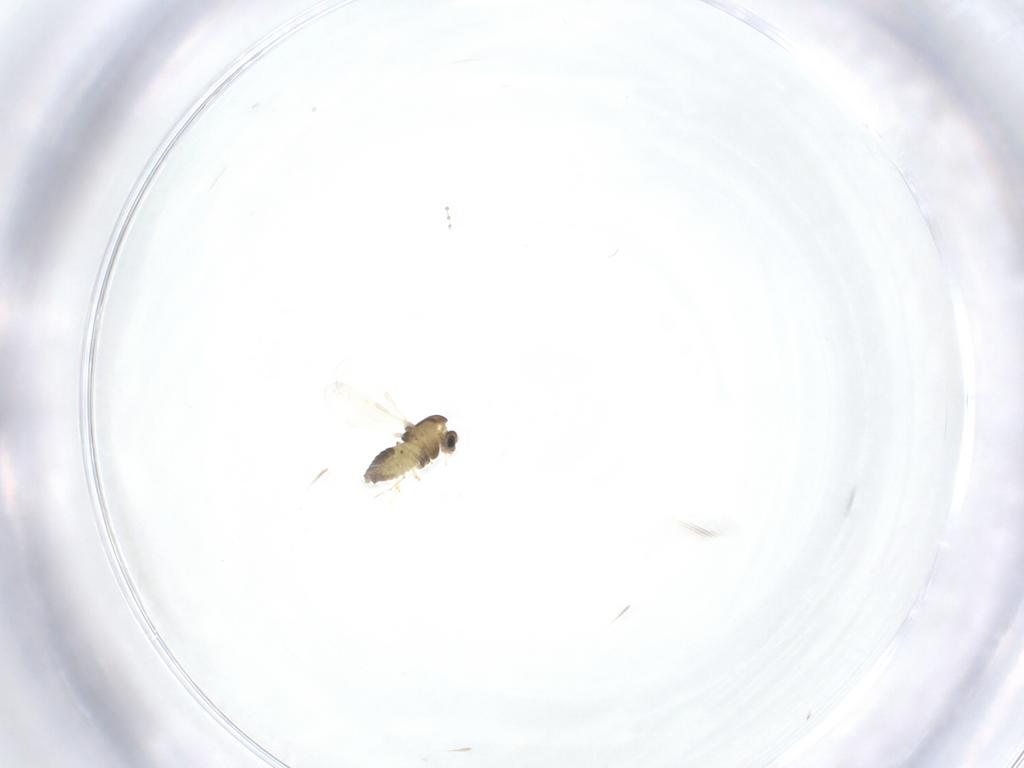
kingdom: Animalia
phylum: Arthropoda
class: Insecta
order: Diptera
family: Chironomidae
